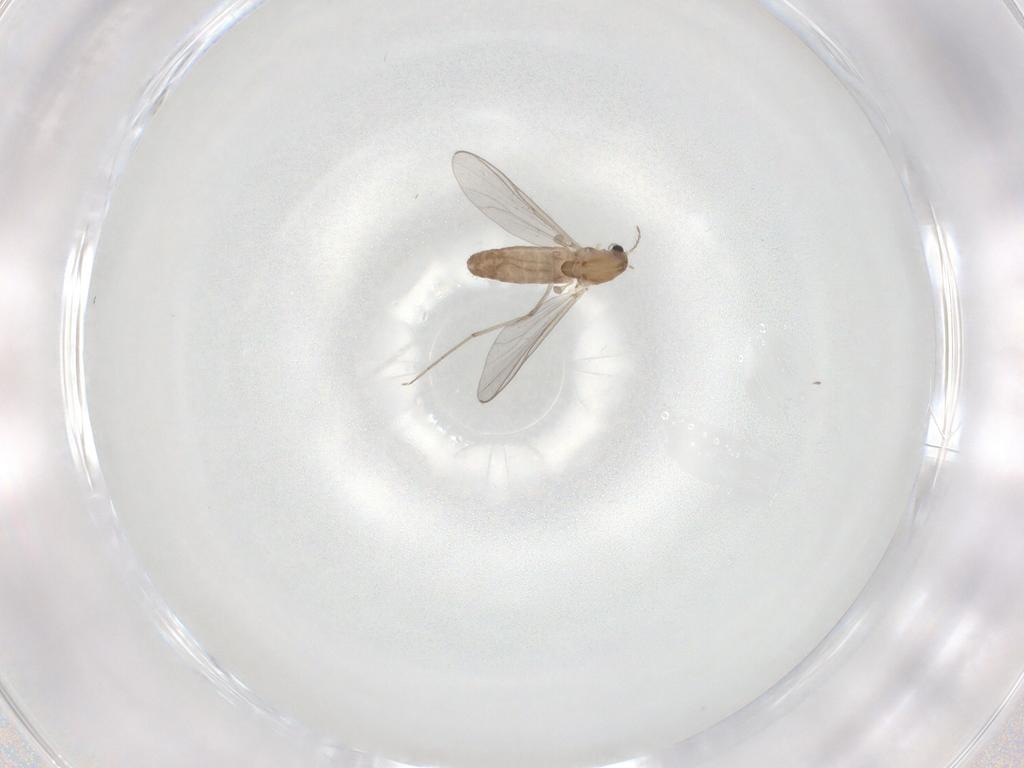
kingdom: Animalia
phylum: Arthropoda
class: Insecta
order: Diptera
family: Chironomidae
